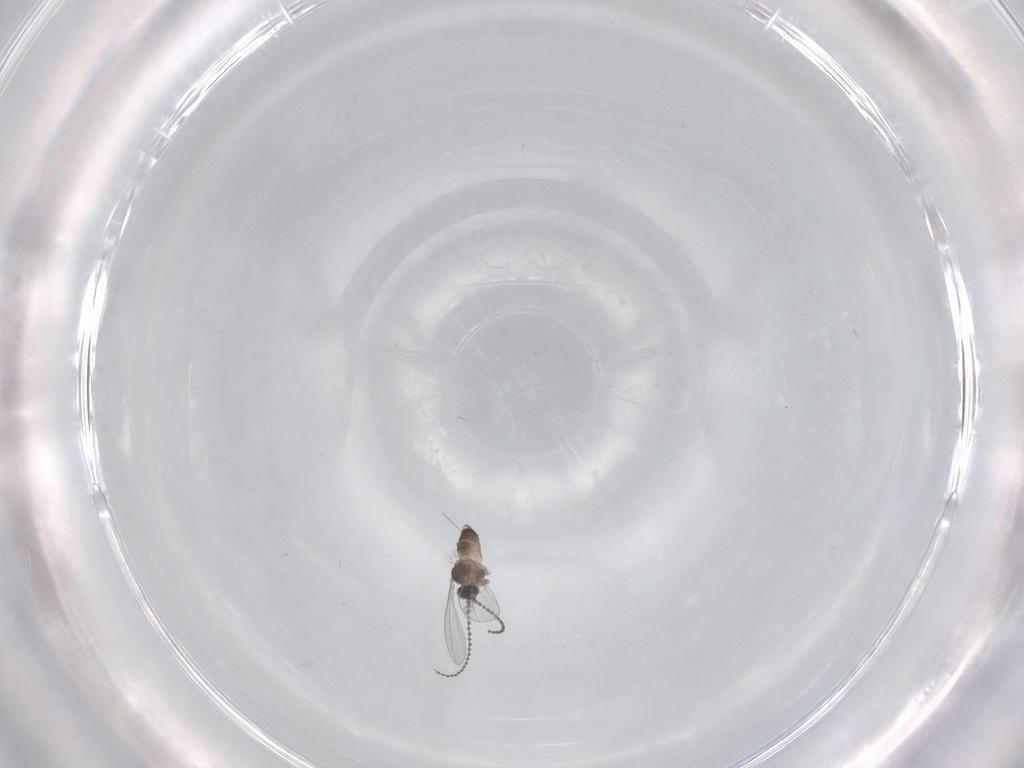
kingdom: Animalia
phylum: Arthropoda
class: Insecta
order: Diptera
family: Cecidomyiidae
